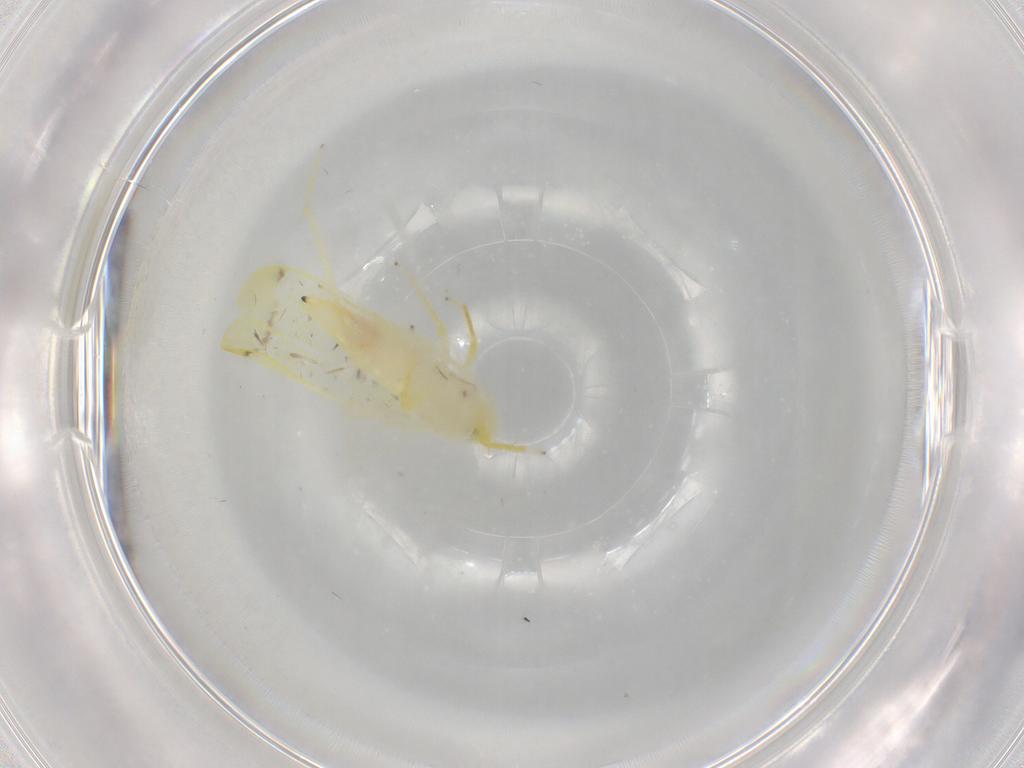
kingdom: Animalia
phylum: Arthropoda
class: Insecta
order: Hemiptera
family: Cicadellidae
